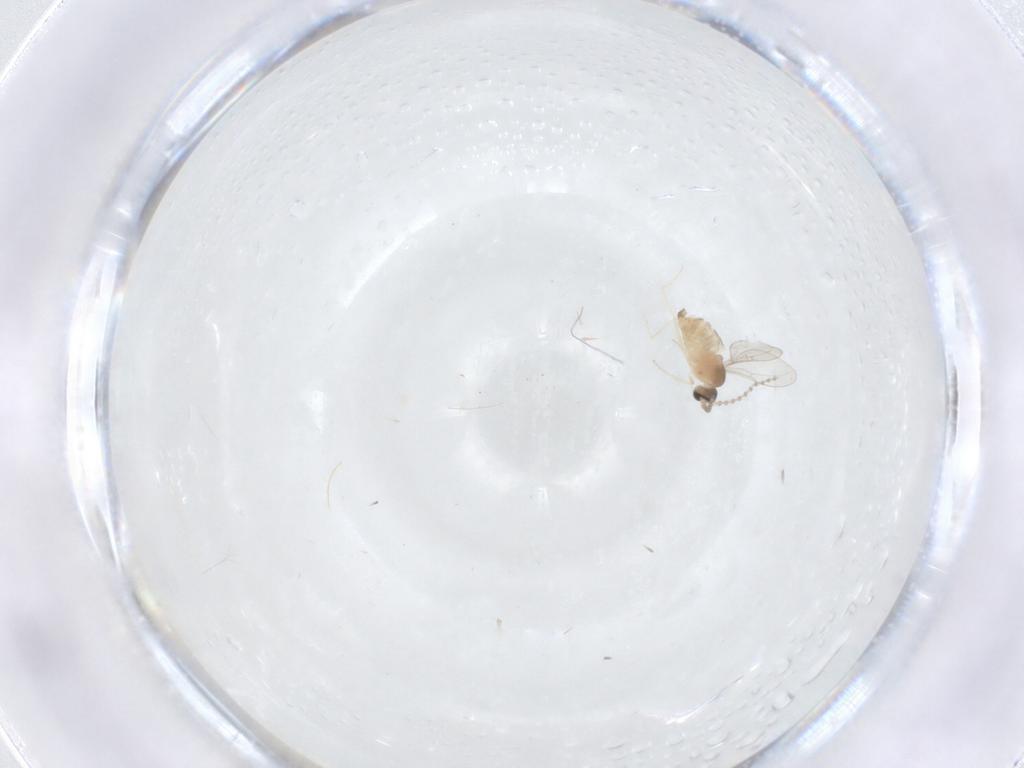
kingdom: Animalia
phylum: Arthropoda
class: Insecta
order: Diptera
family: Cecidomyiidae
